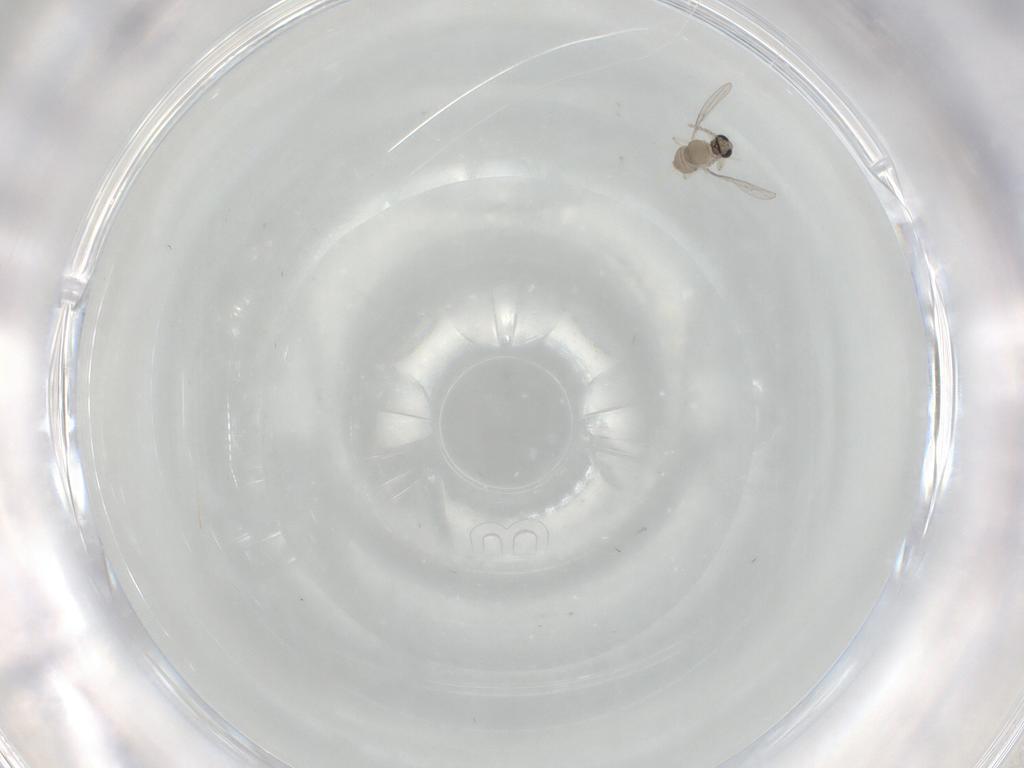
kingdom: Animalia
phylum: Arthropoda
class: Insecta
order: Diptera
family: Cecidomyiidae
